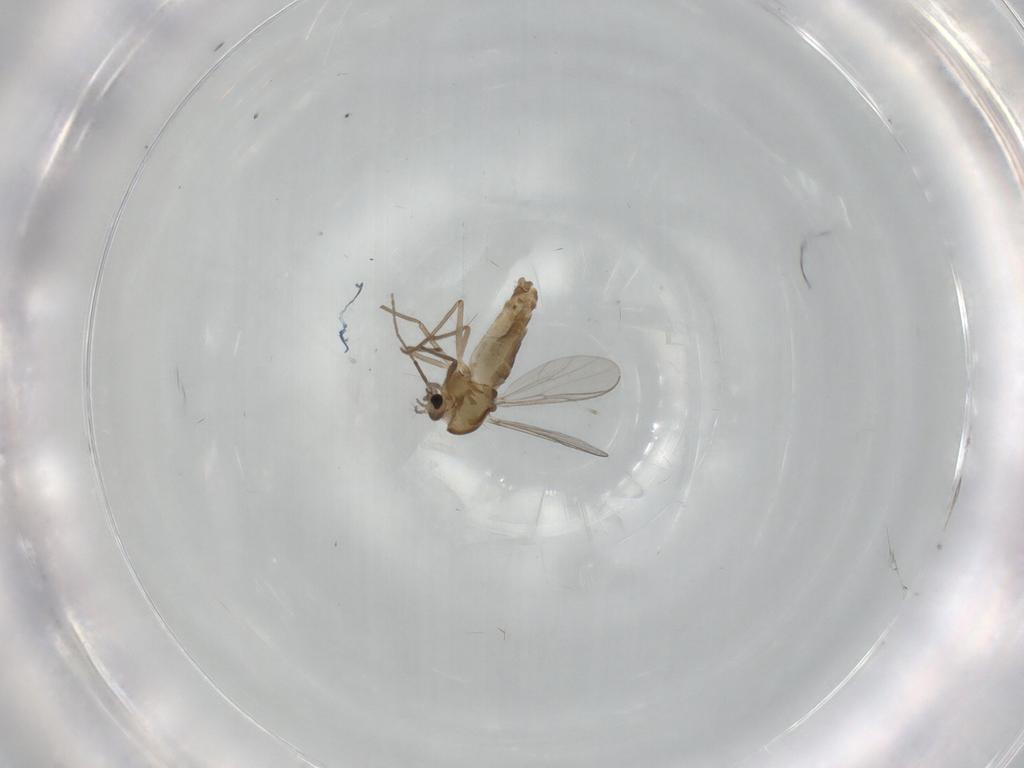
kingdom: Animalia
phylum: Arthropoda
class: Insecta
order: Diptera
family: Chironomidae
